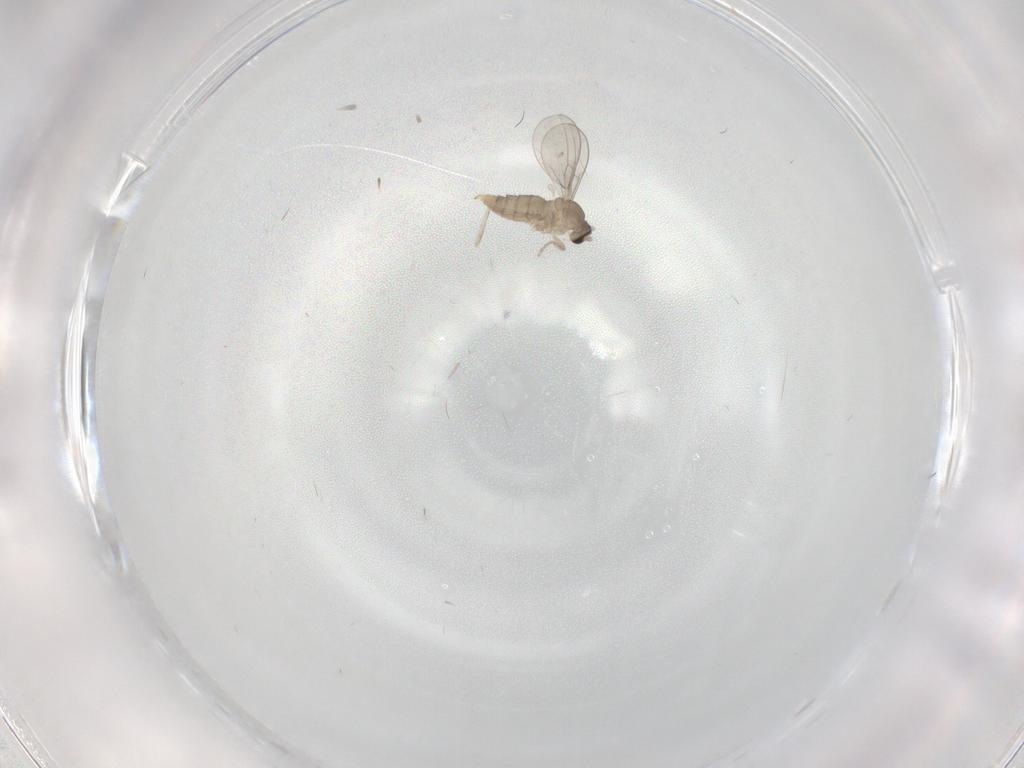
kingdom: Animalia
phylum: Arthropoda
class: Insecta
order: Diptera
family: Cecidomyiidae
